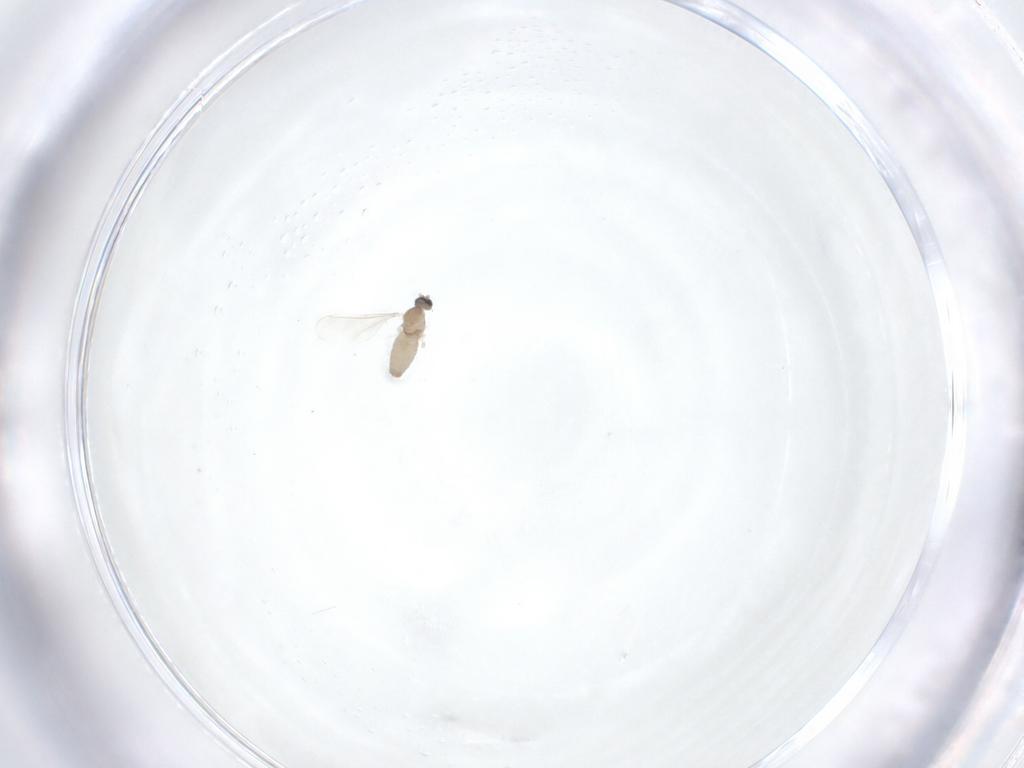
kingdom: Animalia
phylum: Arthropoda
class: Insecta
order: Diptera
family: Cecidomyiidae
